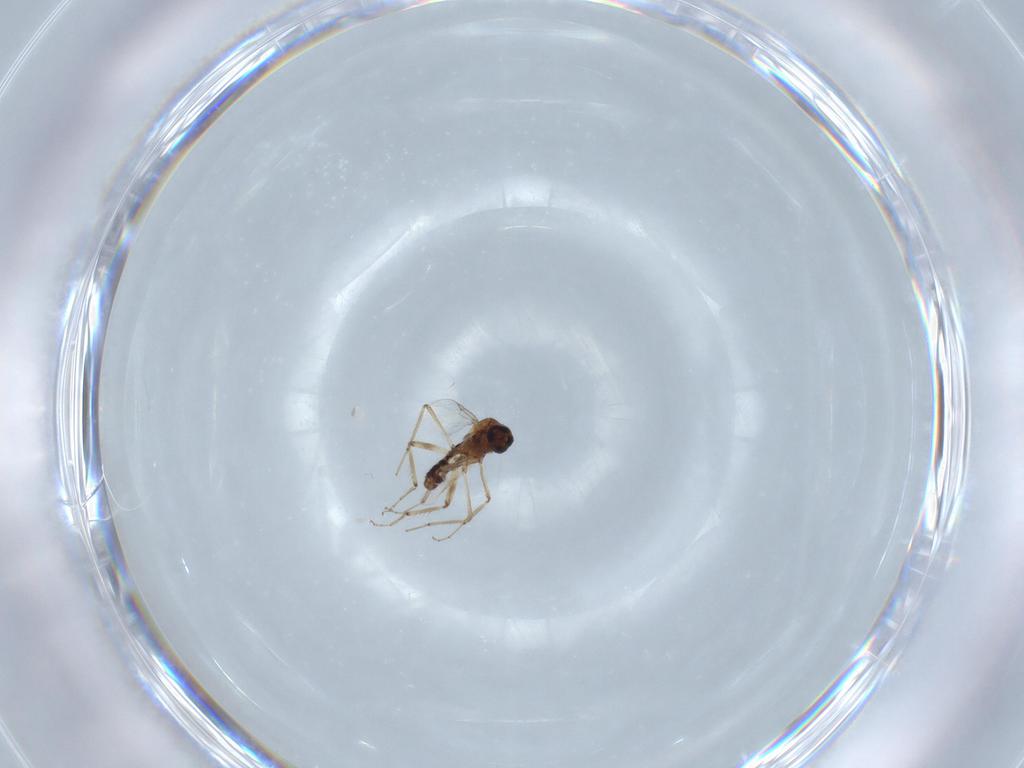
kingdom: Animalia
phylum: Arthropoda
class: Insecta
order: Diptera
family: Ceratopogonidae
